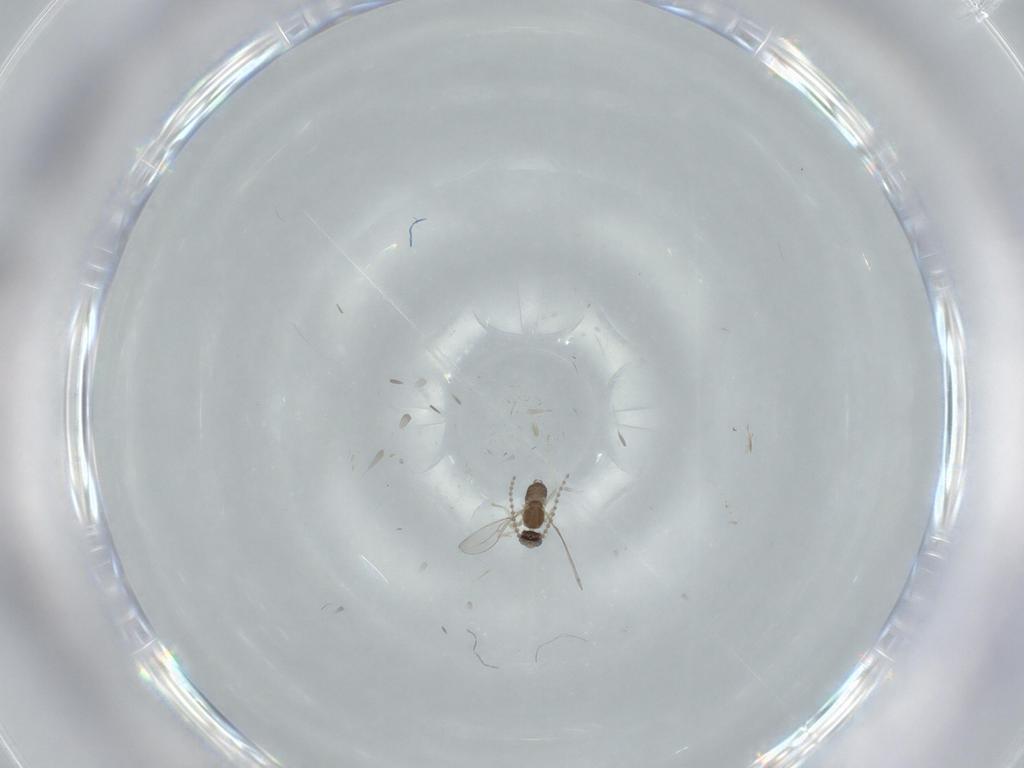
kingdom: Animalia
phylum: Arthropoda
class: Insecta
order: Diptera
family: Cecidomyiidae
